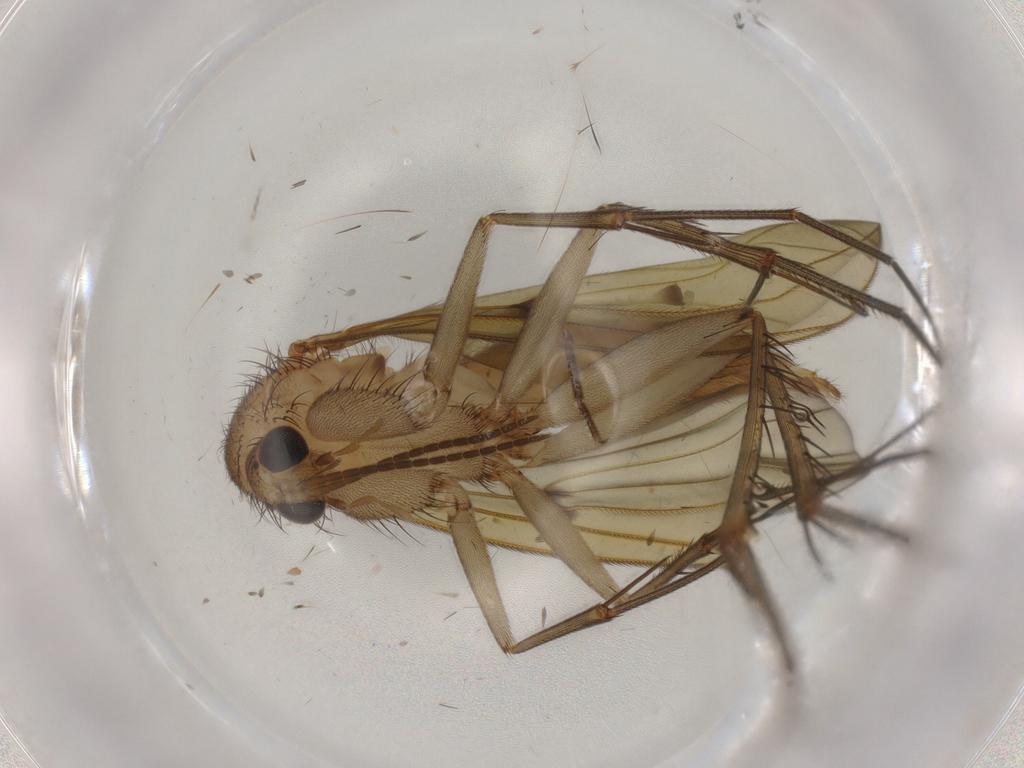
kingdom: Animalia
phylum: Arthropoda
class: Insecta
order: Diptera
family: Mycetophilidae
